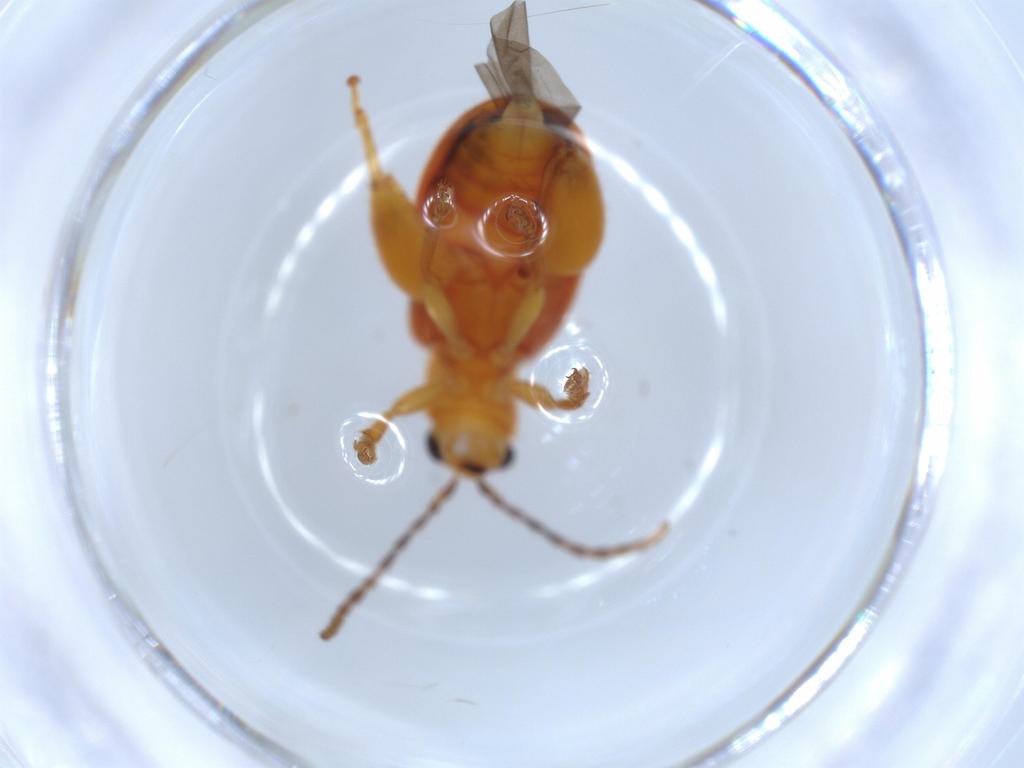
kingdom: Animalia
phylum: Arthropoda
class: Insecta
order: Coleoptera
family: Chrysomelidae
